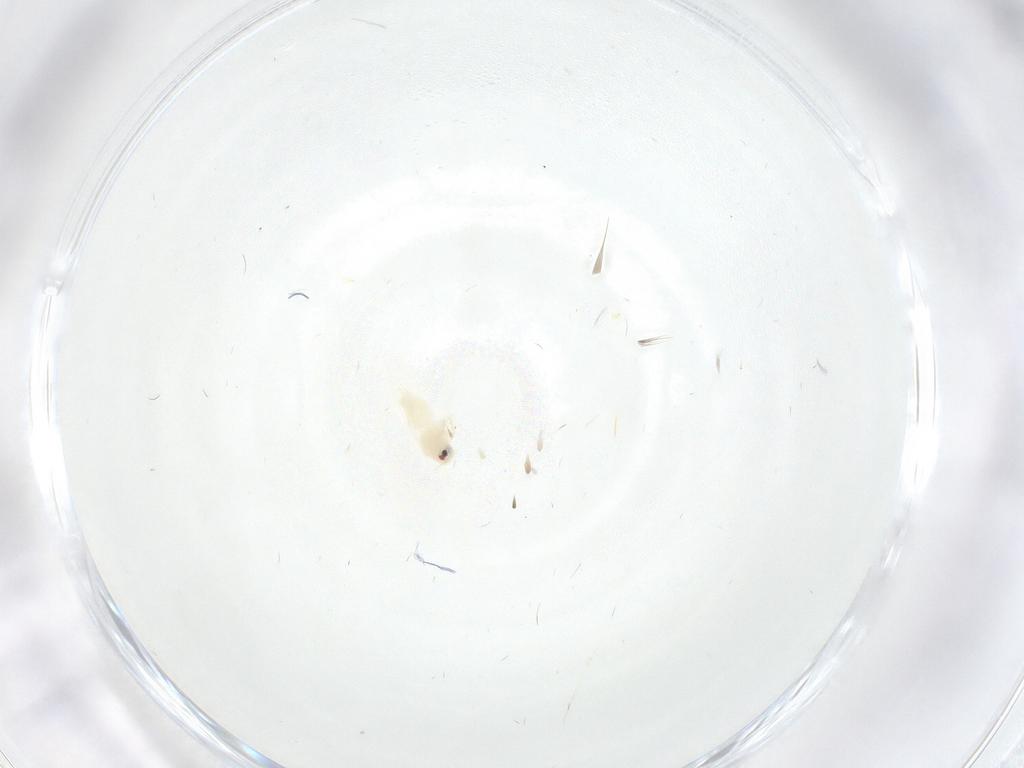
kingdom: Animalia
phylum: Arthropoda
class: Insecta
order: Hemiptera
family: Aleyrodidae
